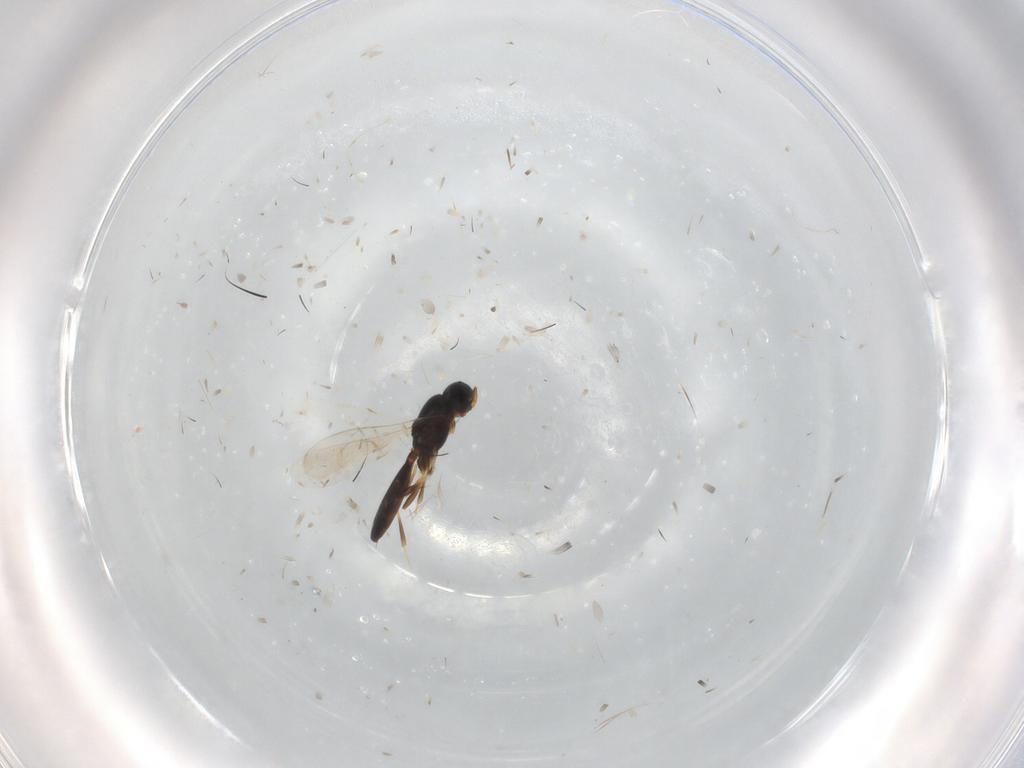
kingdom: Animalia
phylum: Arthropoda
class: Insecta
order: Hymenoptera
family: Scelionidae
